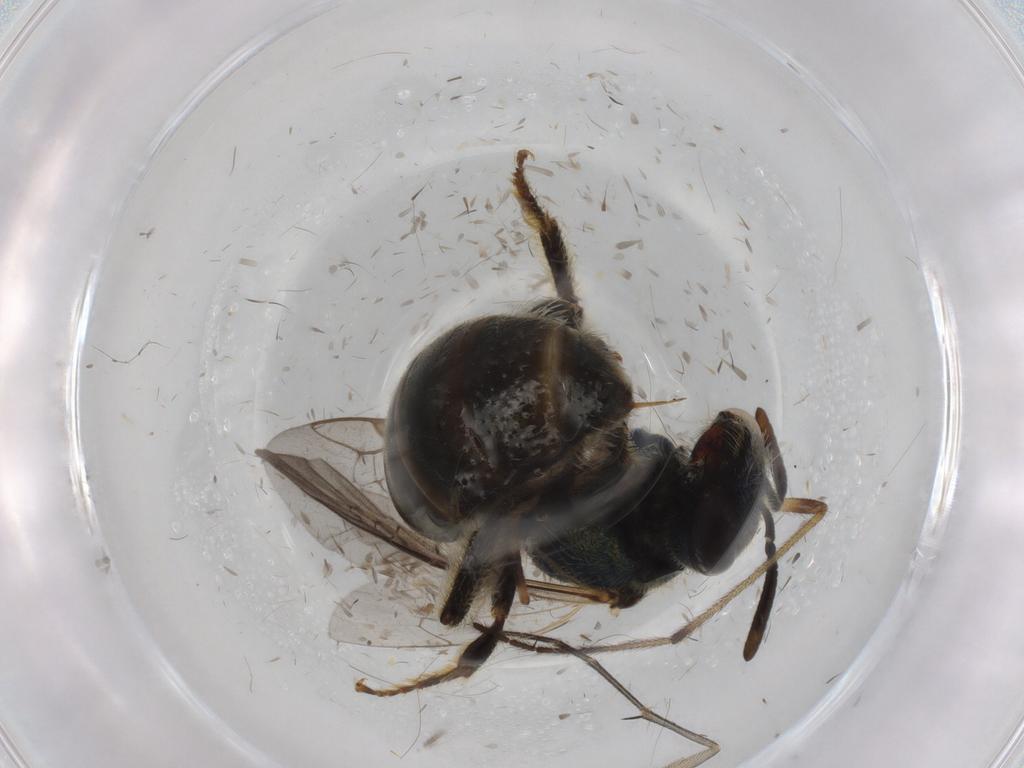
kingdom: Animalia
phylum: Arthropoda
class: Insecta
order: Hymenoptera
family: Halictidae
